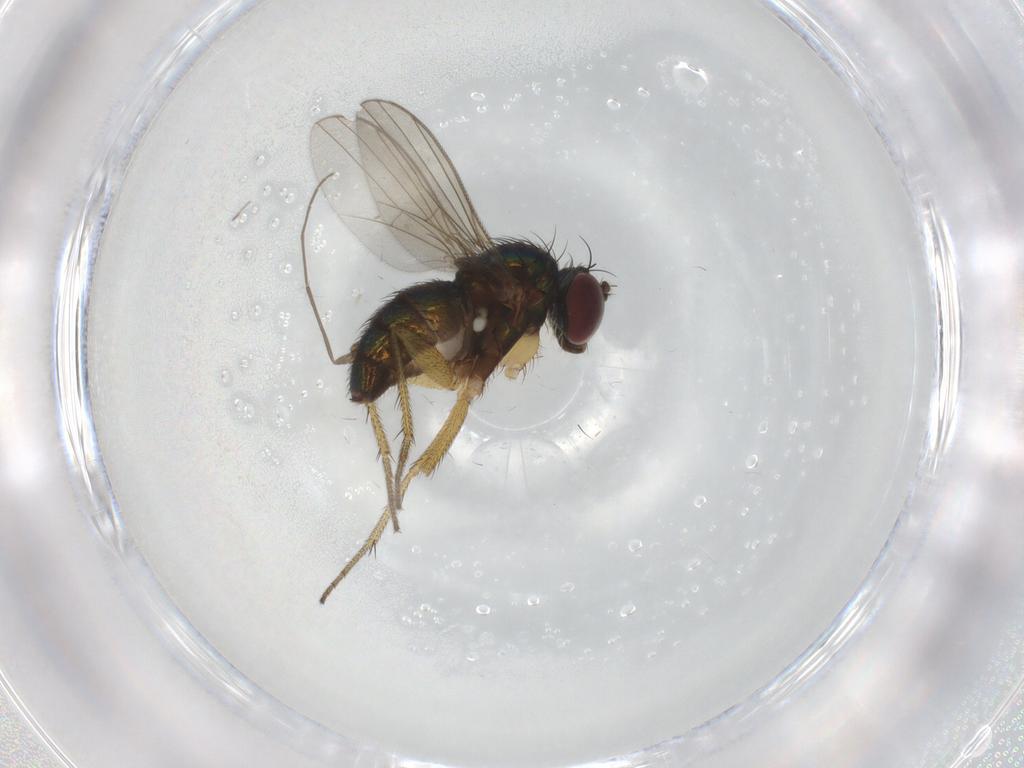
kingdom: Animalia
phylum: Arthropoda
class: Insecta
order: Diptera
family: Chironomidae
